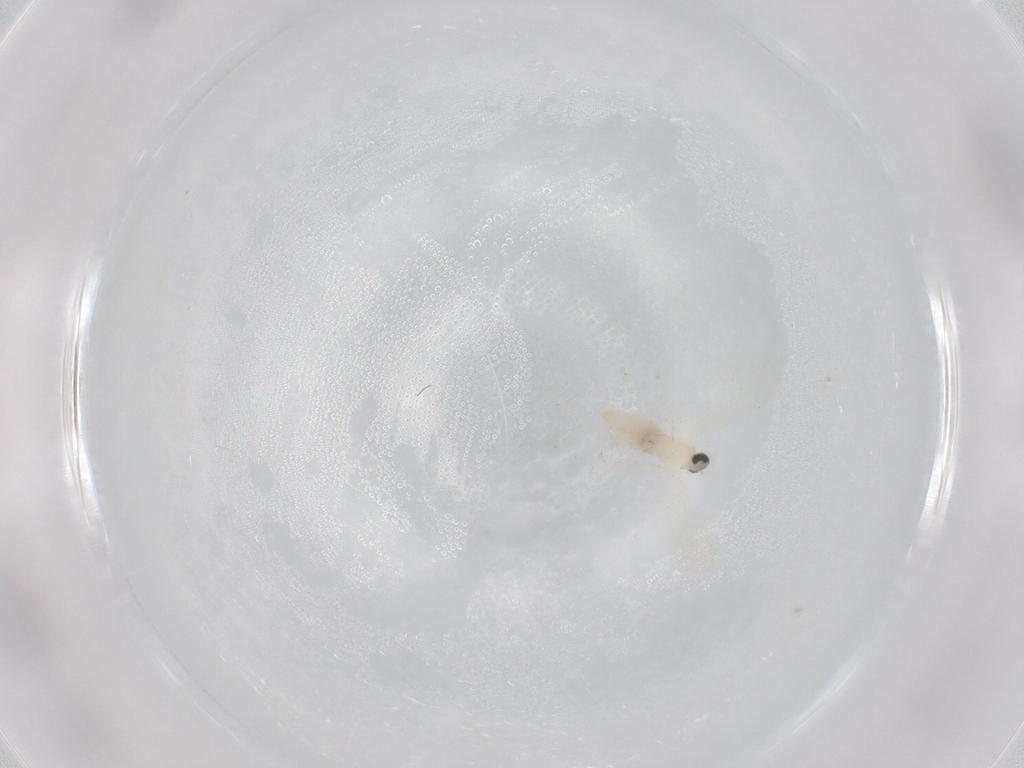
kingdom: Animalia
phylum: Arthropoda
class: Insecta
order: Diptera
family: Cecidomyiidae
